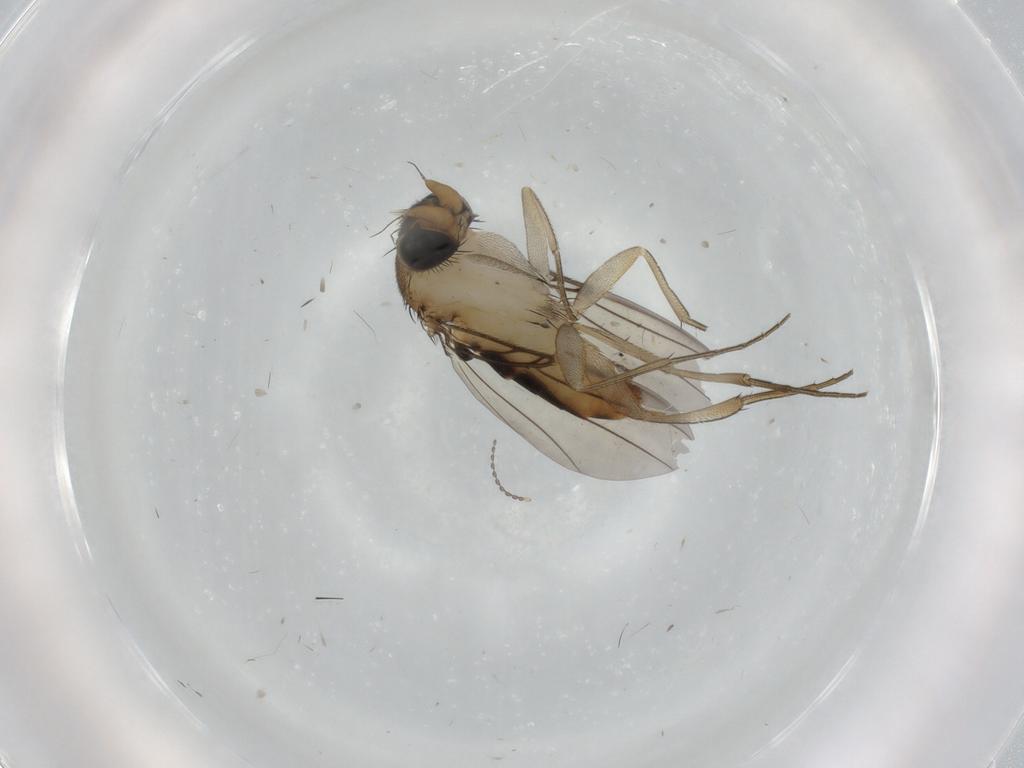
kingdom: Animalia
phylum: Arthropoda
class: Insecta
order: Diptera
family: Phoridae
